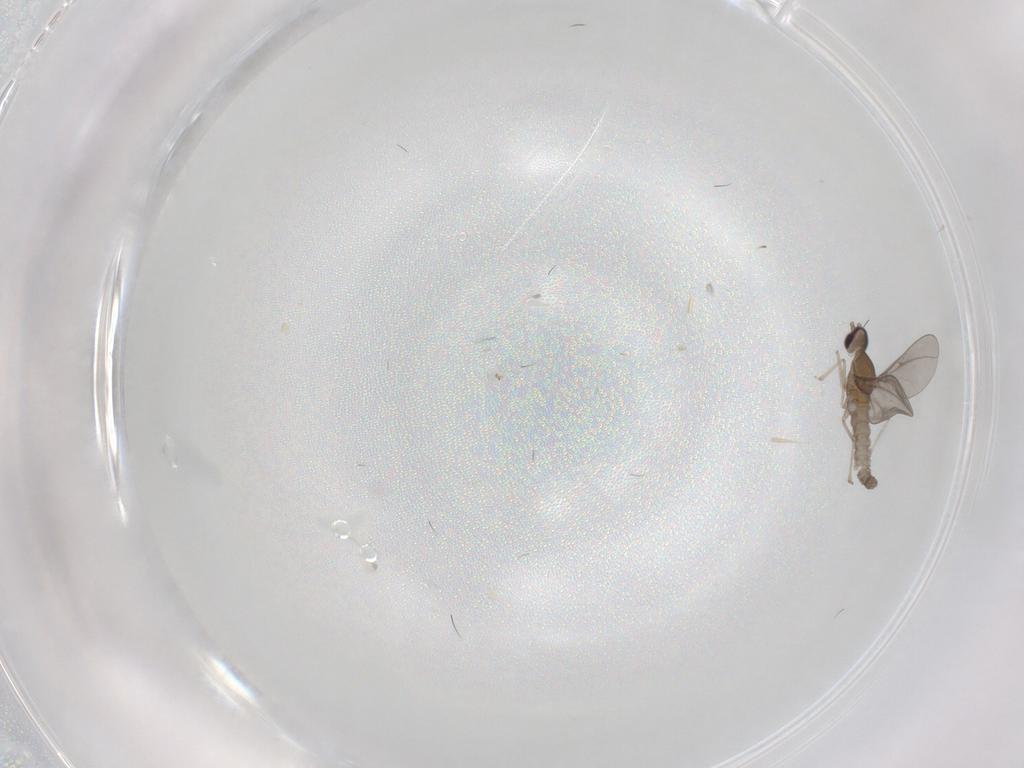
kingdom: Animalia
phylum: Arthropoda
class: Insecta
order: Diptera
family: Cecidomyiidae
